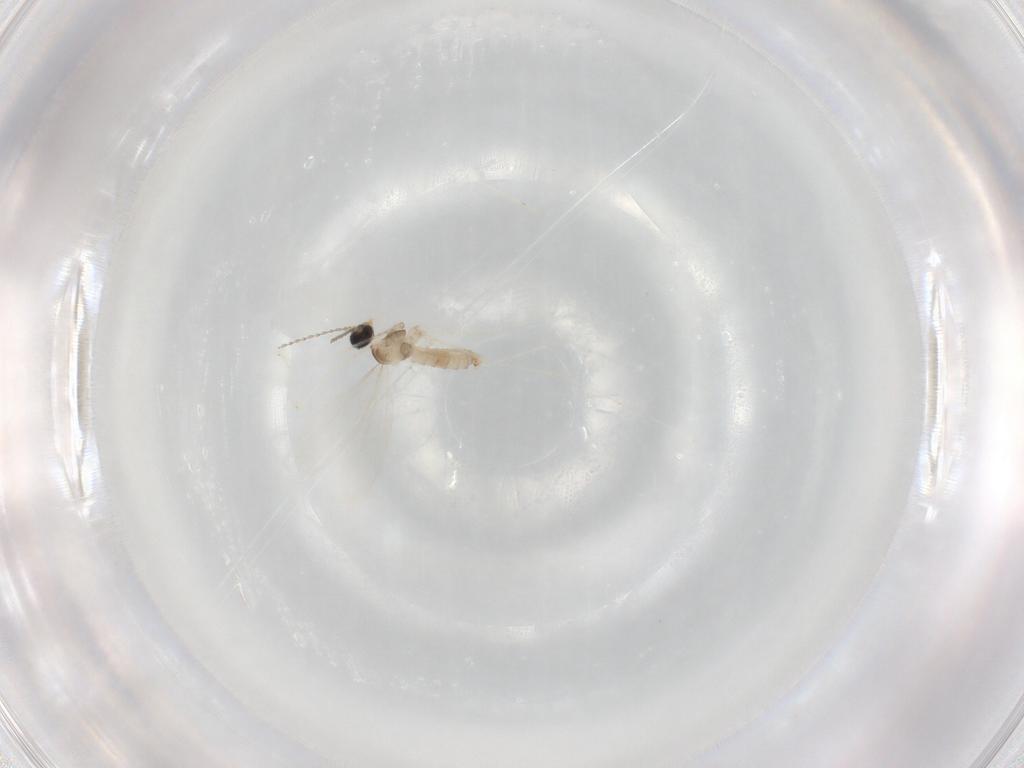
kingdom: Animalia
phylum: Arthropoda
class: Insecta
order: Diptera
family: Cecidomyiidae
